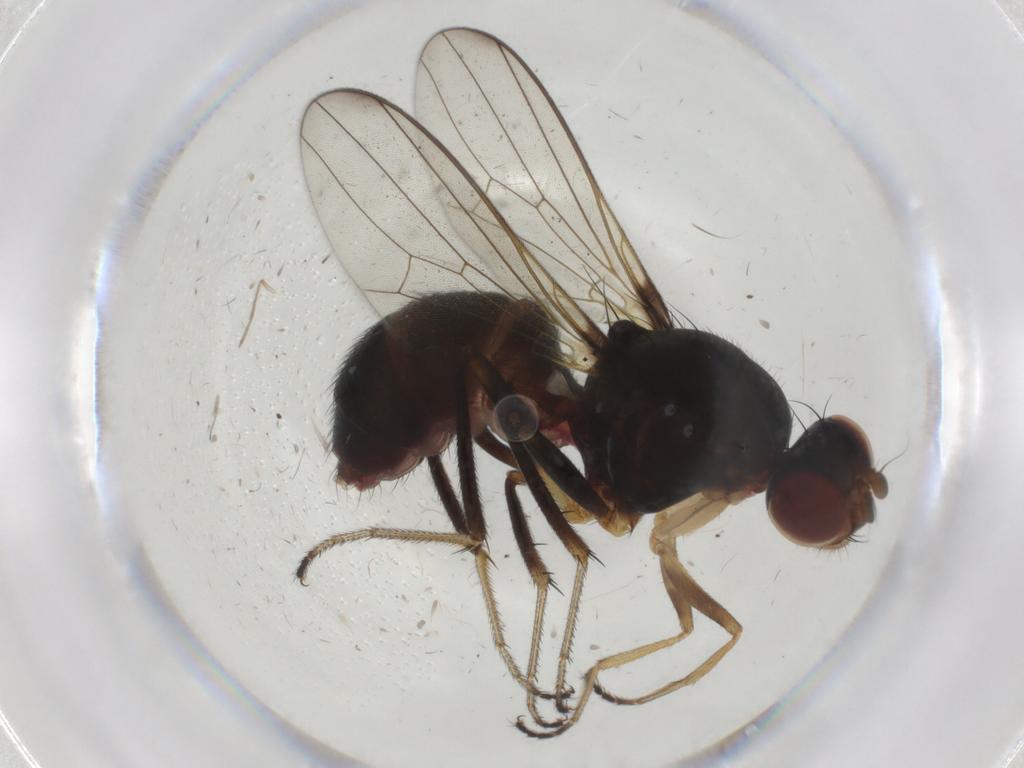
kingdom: Animalia
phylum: Arthropoda
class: Insecta
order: Diptera
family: Sepsidae
